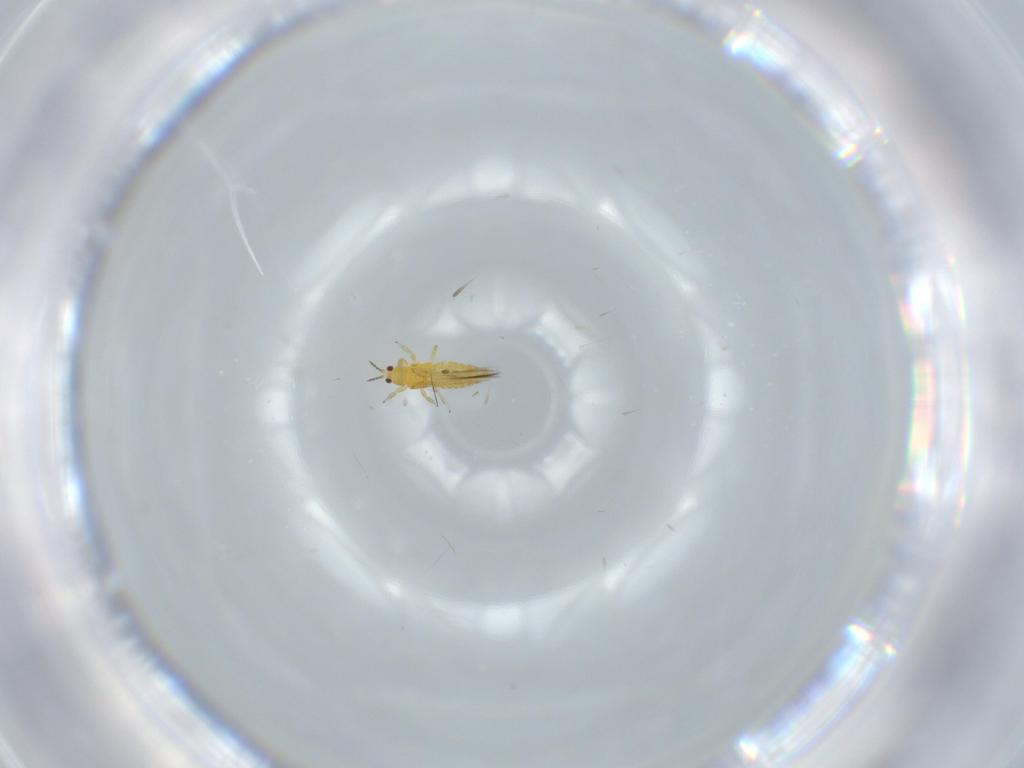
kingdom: Animalia
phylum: Arthropoda
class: Insecta
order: Thysanoptera
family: Thripidae
